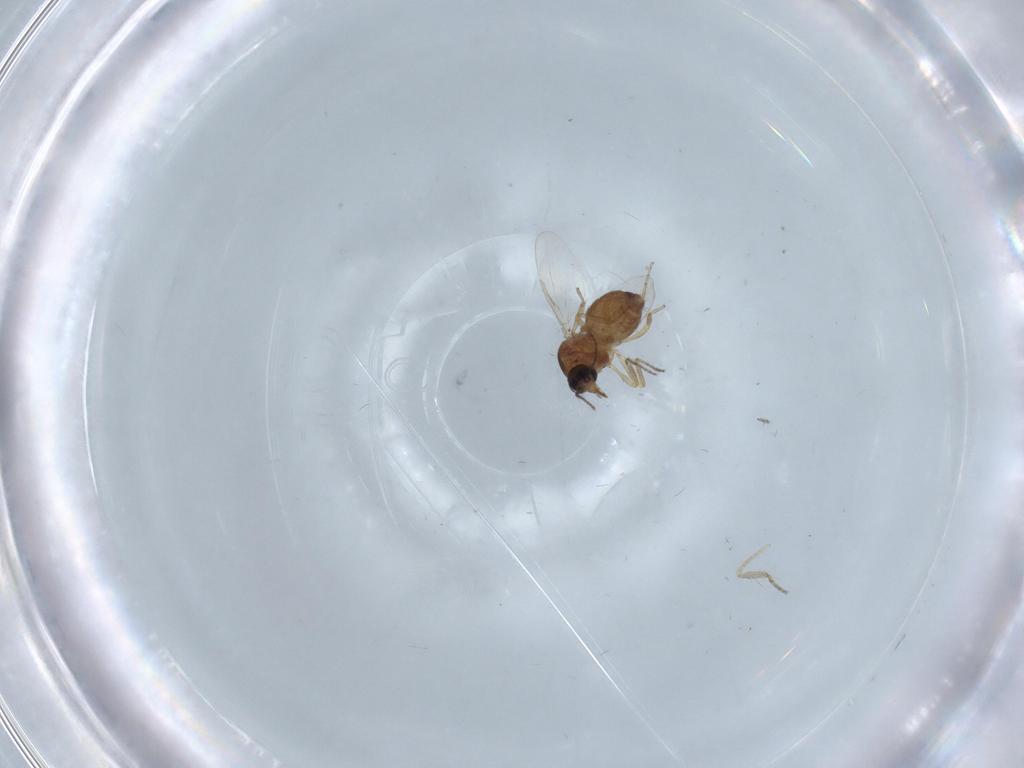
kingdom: Animalia
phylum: Arthropoda
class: Insecta
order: Diptera
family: Ceratopogonidae
